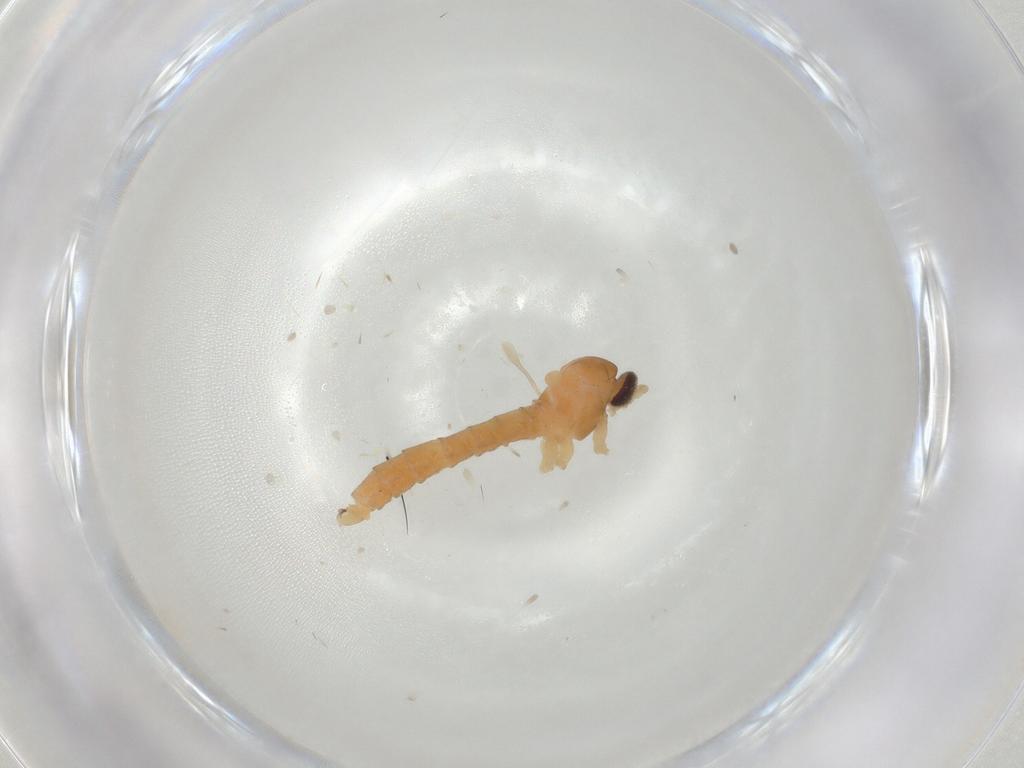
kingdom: Animalia
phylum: Arthropoda
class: Insecta
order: Diptera
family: Cecidomyiidae
